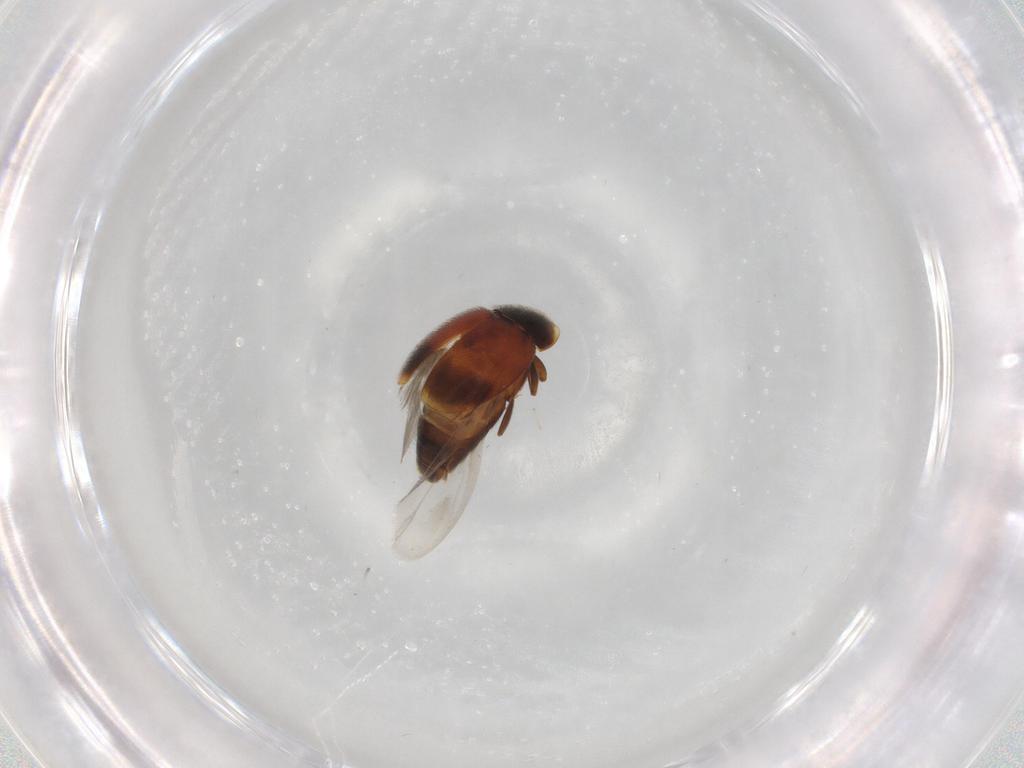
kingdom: Animalia
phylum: Arthropoda
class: Insecta
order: Coleoptera
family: Corylophidae
